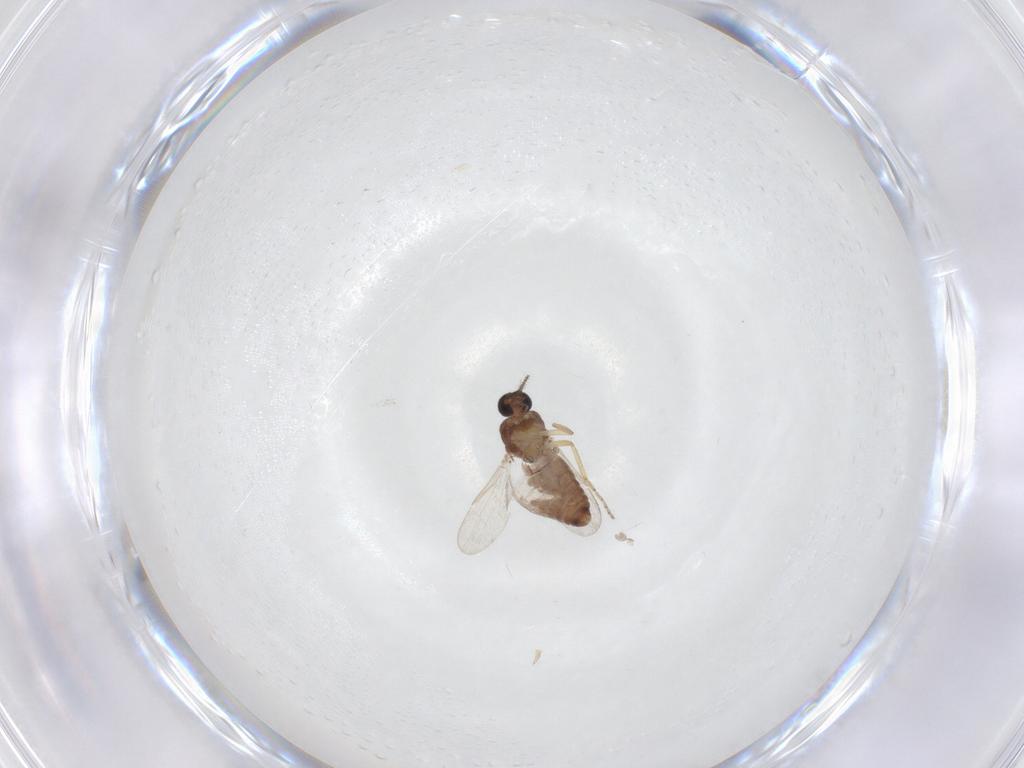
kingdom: Animalia
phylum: Arthropoda
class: Insecta
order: Diptera
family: Ceratopogonidae
